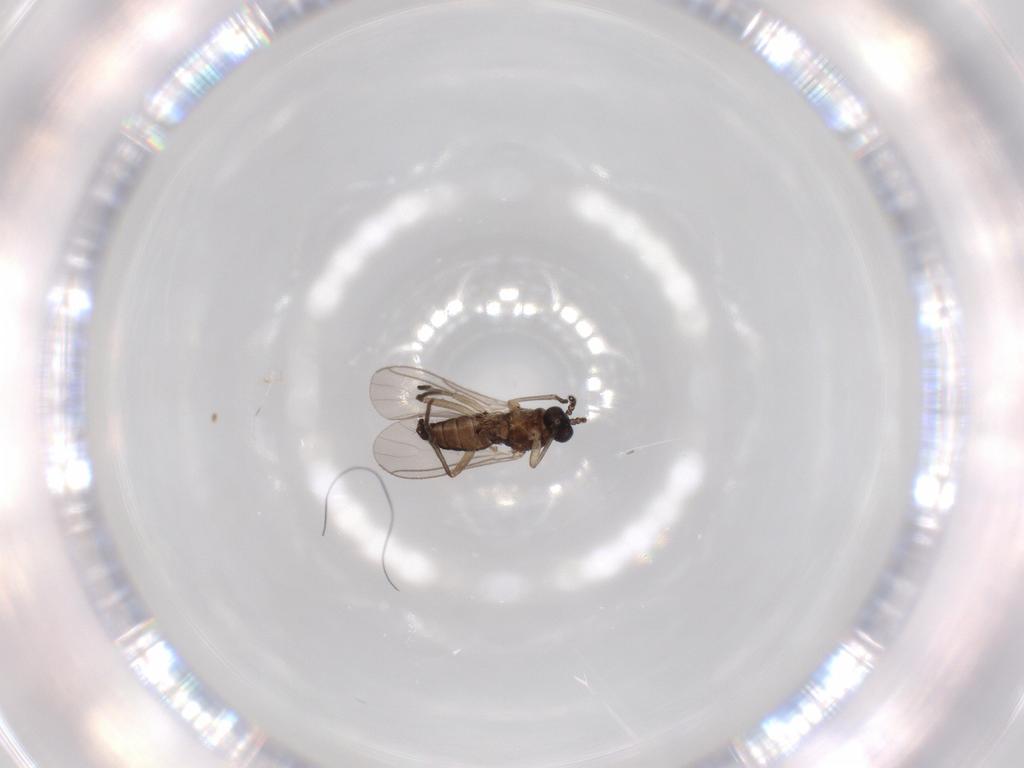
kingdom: Animalia
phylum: Arthropoda
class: Insecta
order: Diptera
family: Sciaridae
